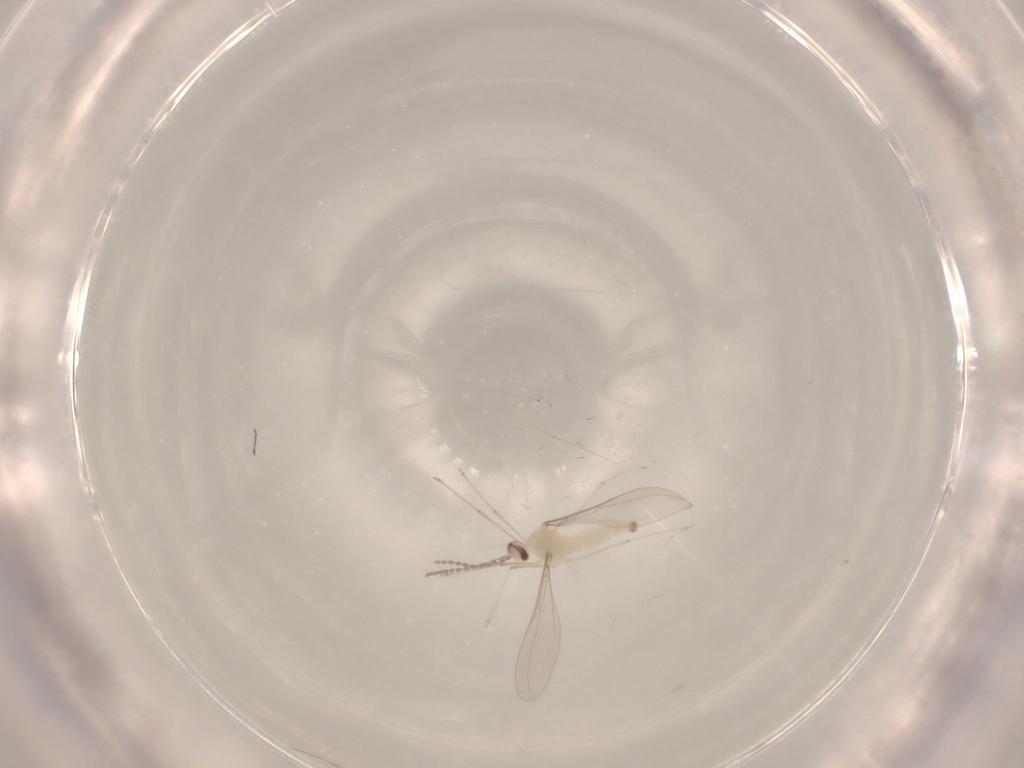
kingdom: Animalia
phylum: Arthropoda
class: Insecta
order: Diptera
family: Cecidomyiidae
